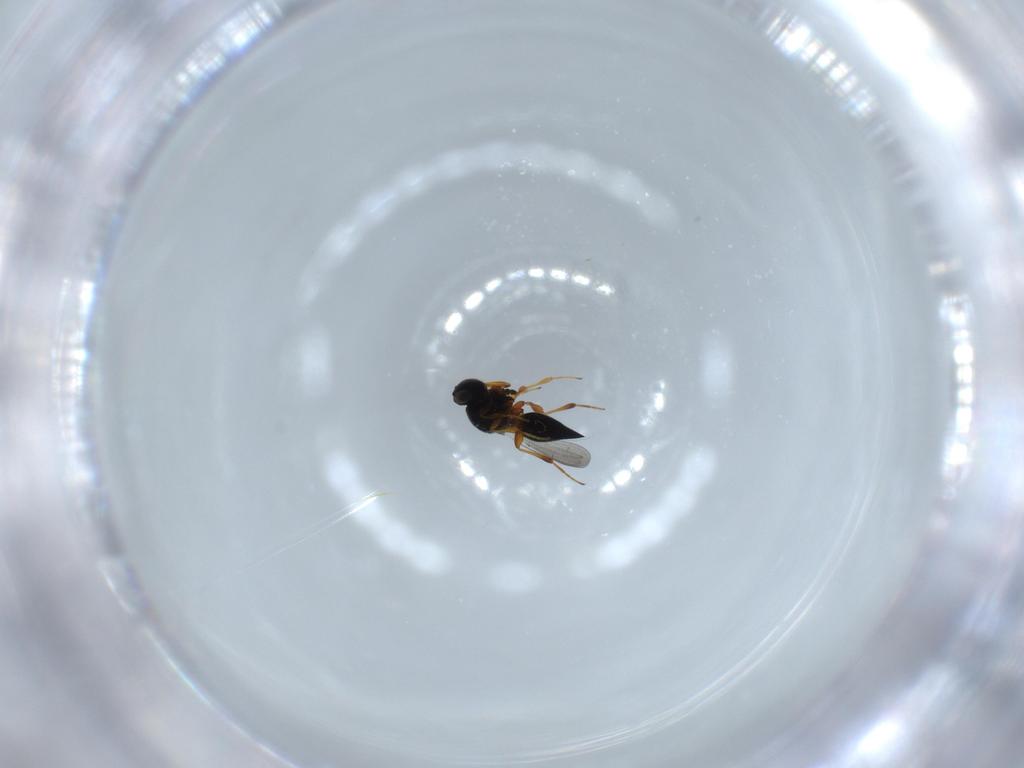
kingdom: Animalia
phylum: Arthropoda
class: Insecta
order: Hymenoptera
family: Platygastridae
